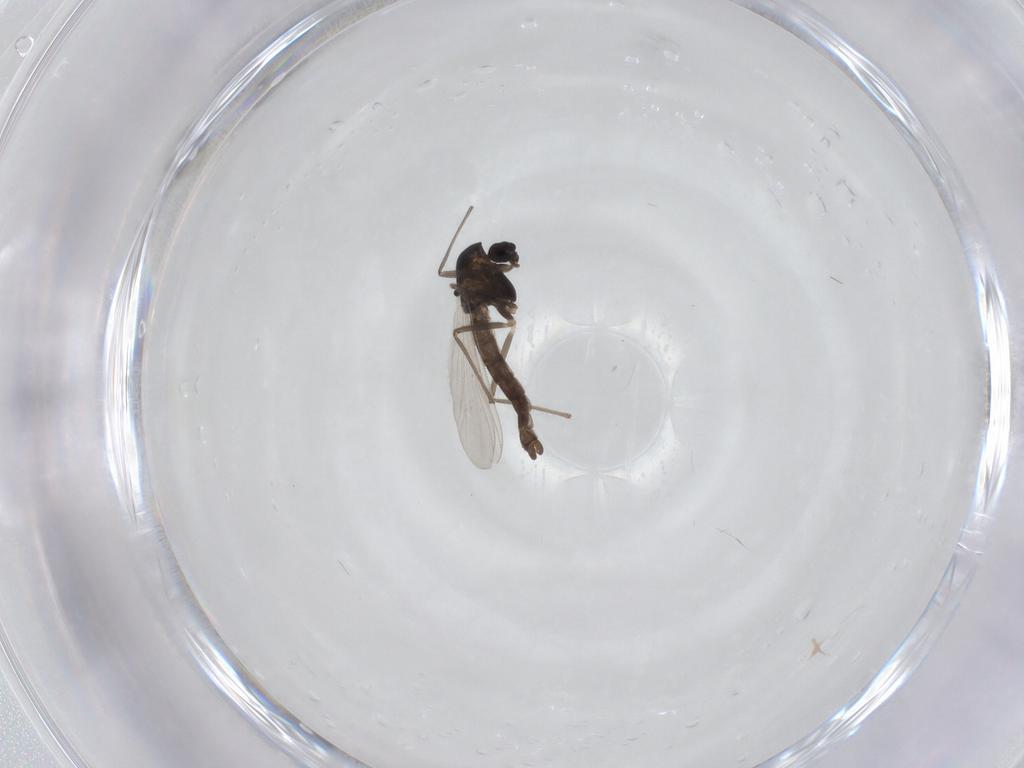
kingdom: Animalia
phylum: Arthropoda
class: Insecta
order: Diptera
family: Chironomidae
